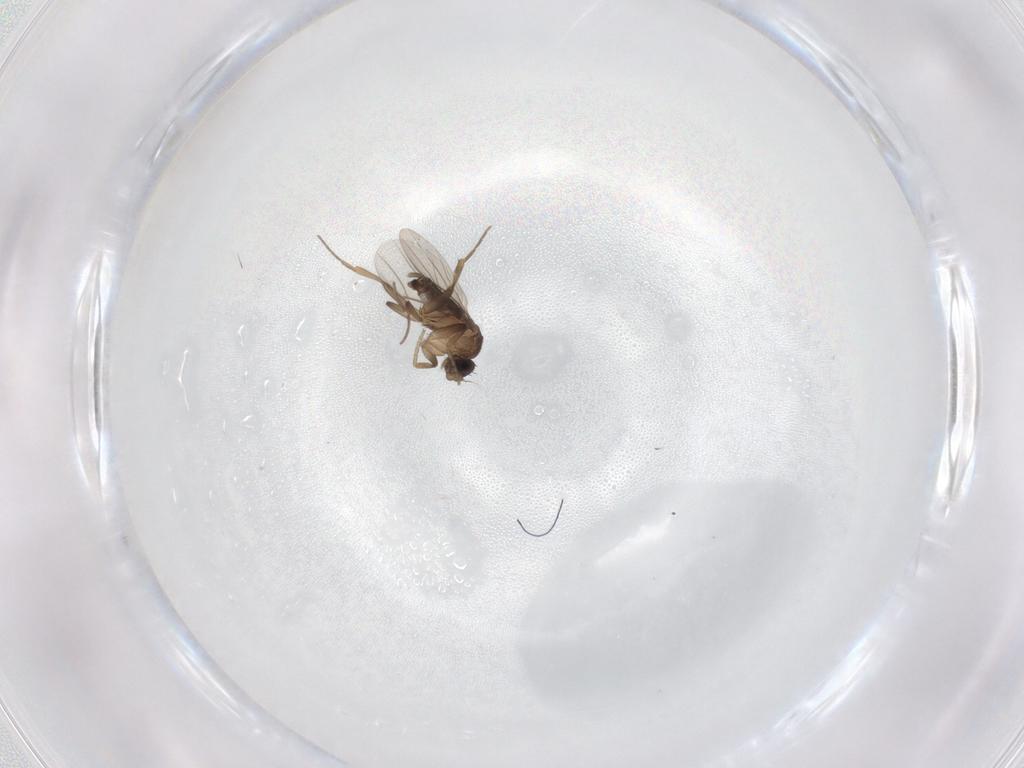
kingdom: Animalia
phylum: Arthropoda
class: Insecta
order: Diptera
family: Phoridae
